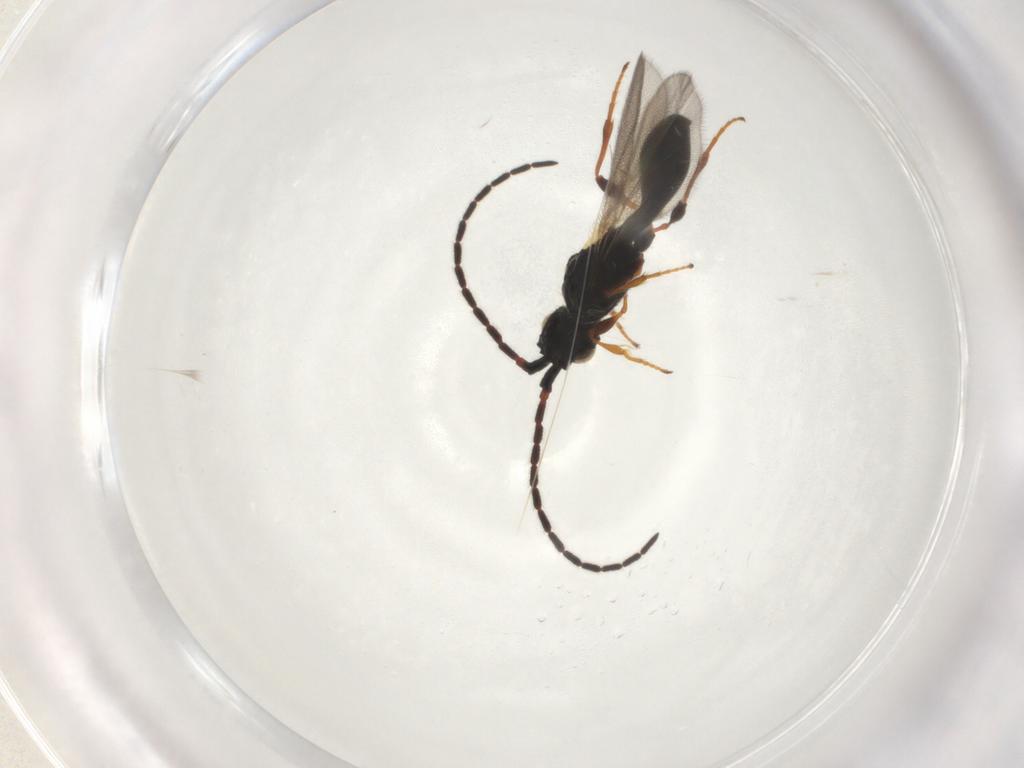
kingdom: Animalia
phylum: Arthropoda
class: Insecta
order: Hymenoptera
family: Diapriidae
